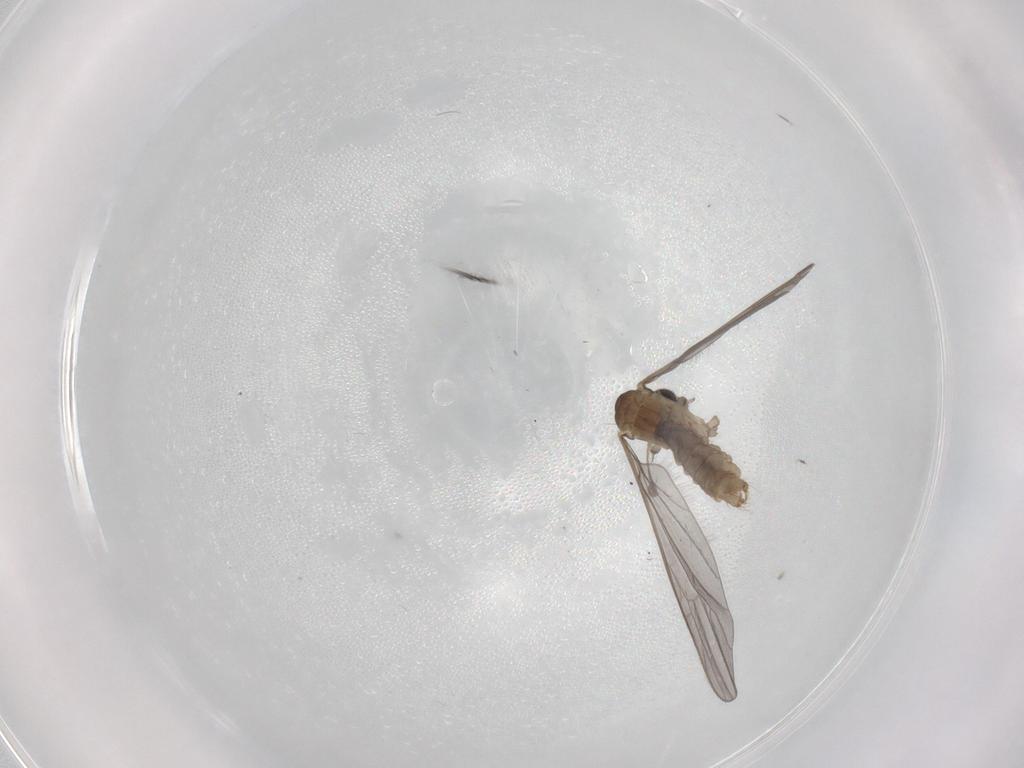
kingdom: Animalia
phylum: Arthropoda
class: Insecta
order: Diptera
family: Limoniidae
